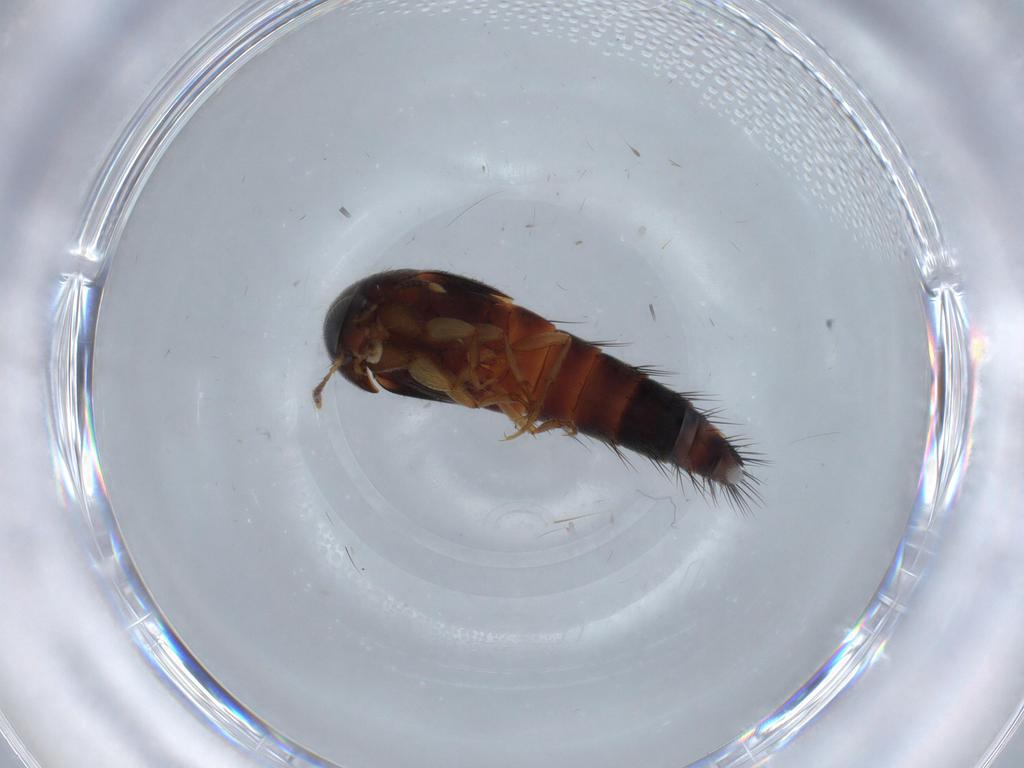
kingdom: Animalia
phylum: Arthropoda
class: Insecta
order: Coleoptera
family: Staphylinidae
